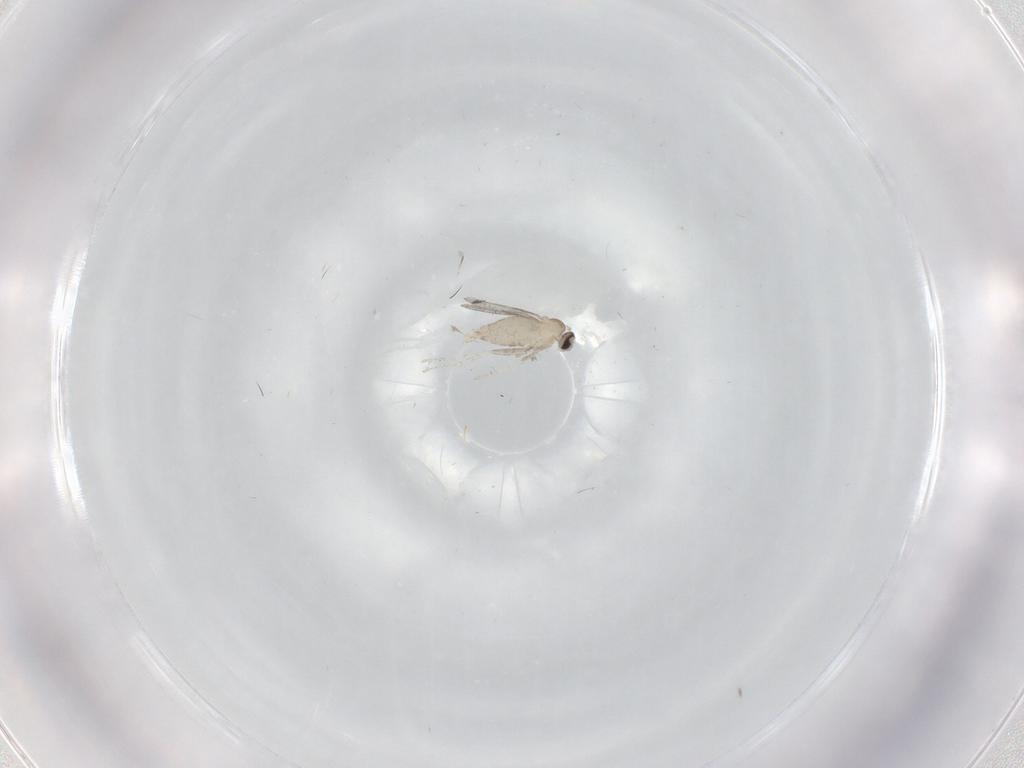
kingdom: Animalia
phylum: Arthropoda
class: Insecta
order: Diptera
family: Cecidomyiidae
